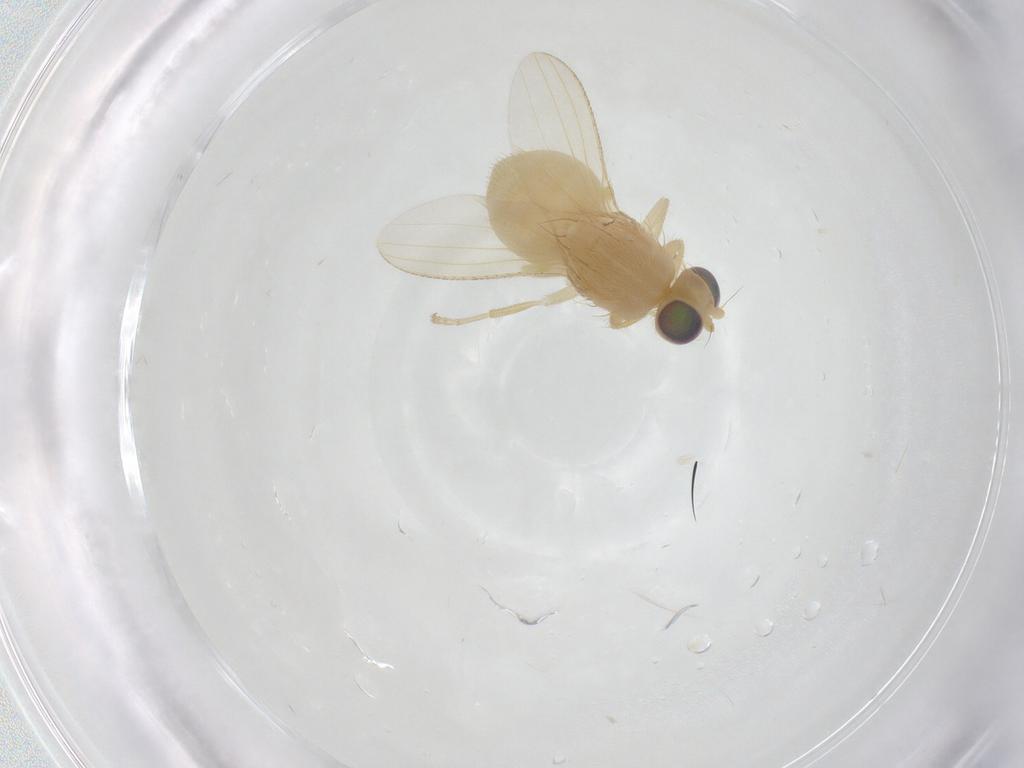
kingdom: Animalia
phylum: Arthropoda
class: Insecta
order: Diptera
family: Chyromyidae
